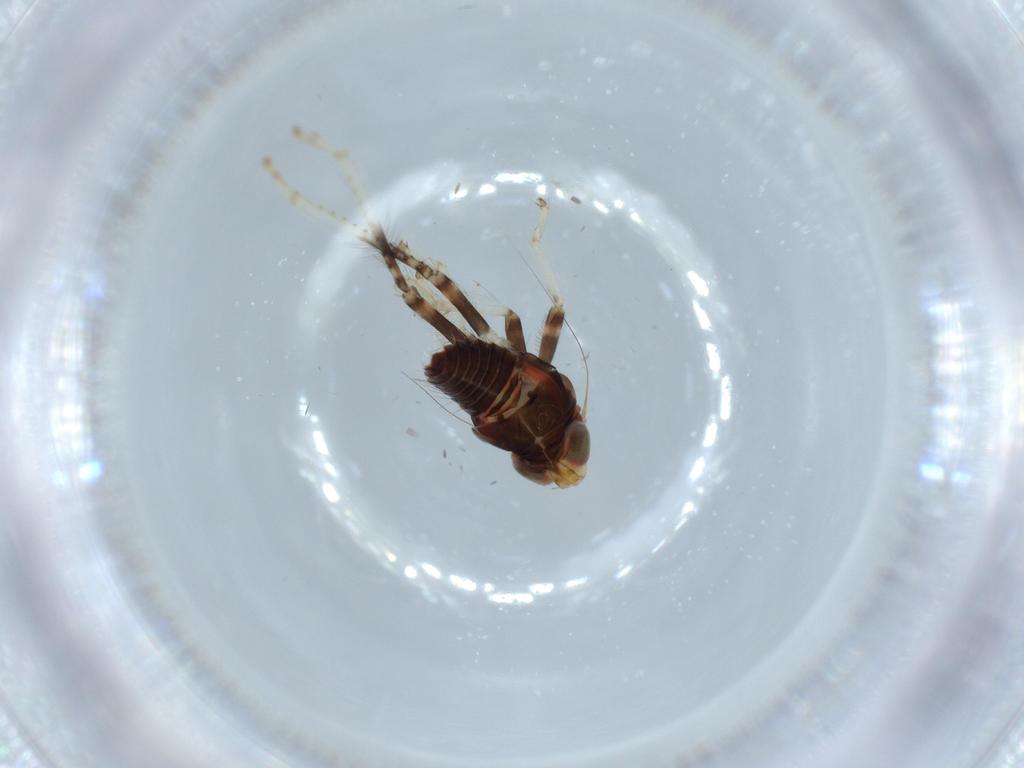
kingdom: Animalia
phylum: Arthropoda
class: Insecta
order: Hemiptera
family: Cicadellidae
